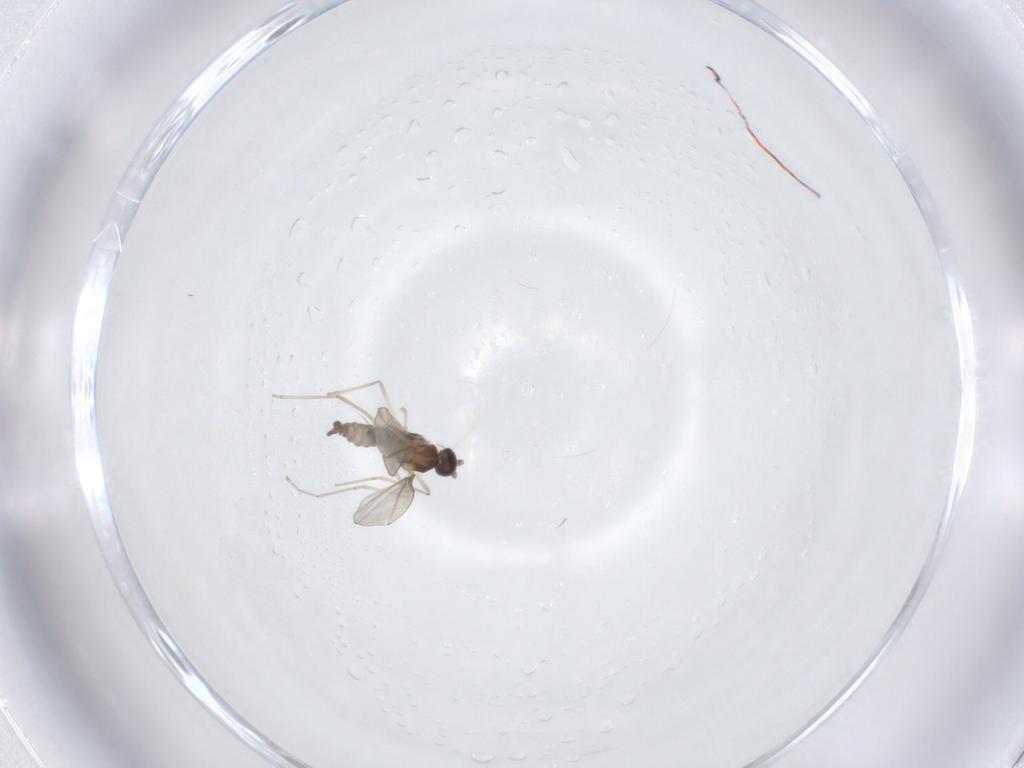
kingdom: Animalia
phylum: Arthropoda
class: Insecta
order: Diptera
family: Cecidomyiidae
